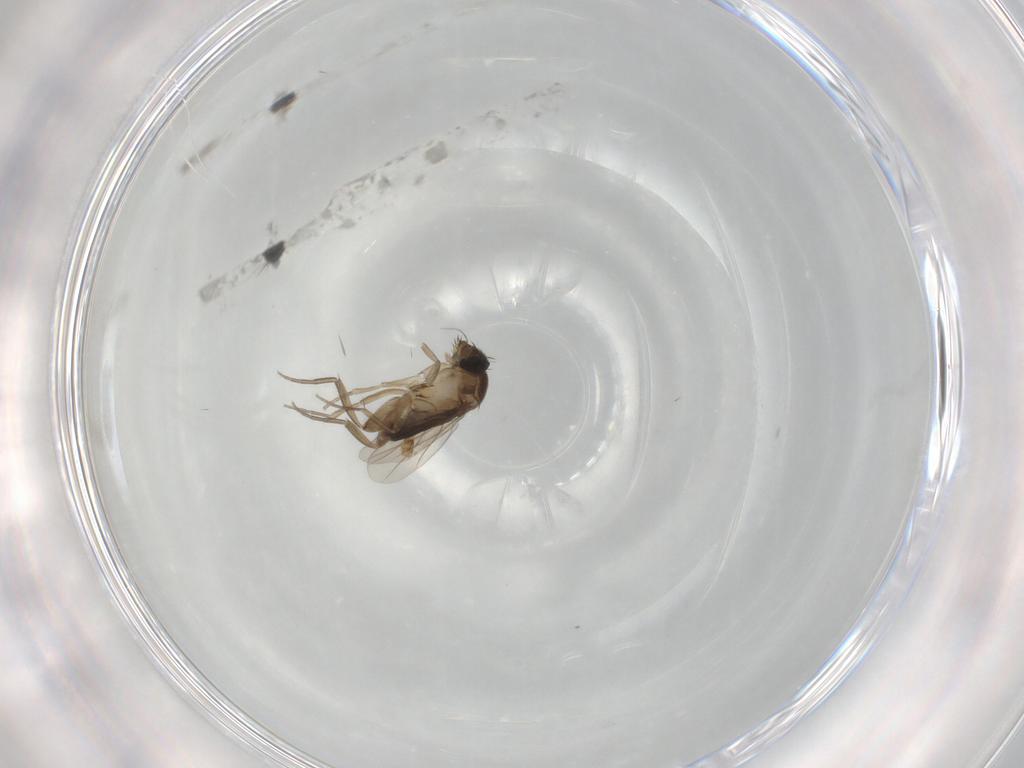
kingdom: Animalia
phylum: Arthropoda
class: Insecta
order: Diptera
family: Phoridae
